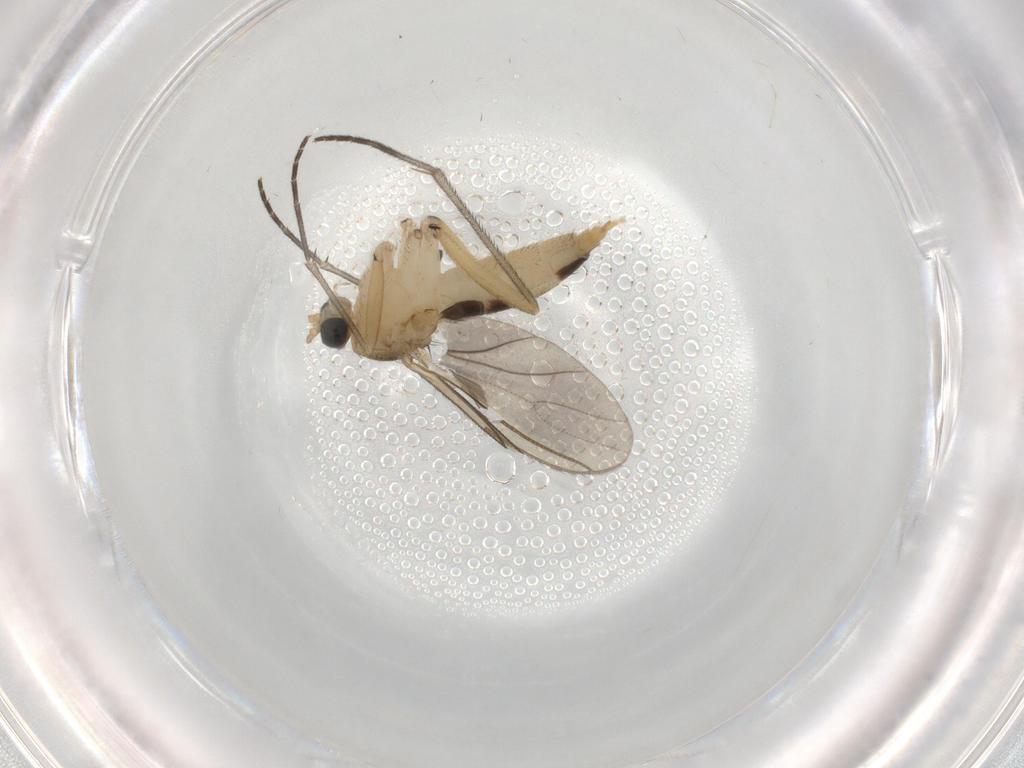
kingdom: Animalia
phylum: Arthropoda
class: Insecta
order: Diptera
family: Sciaridae
